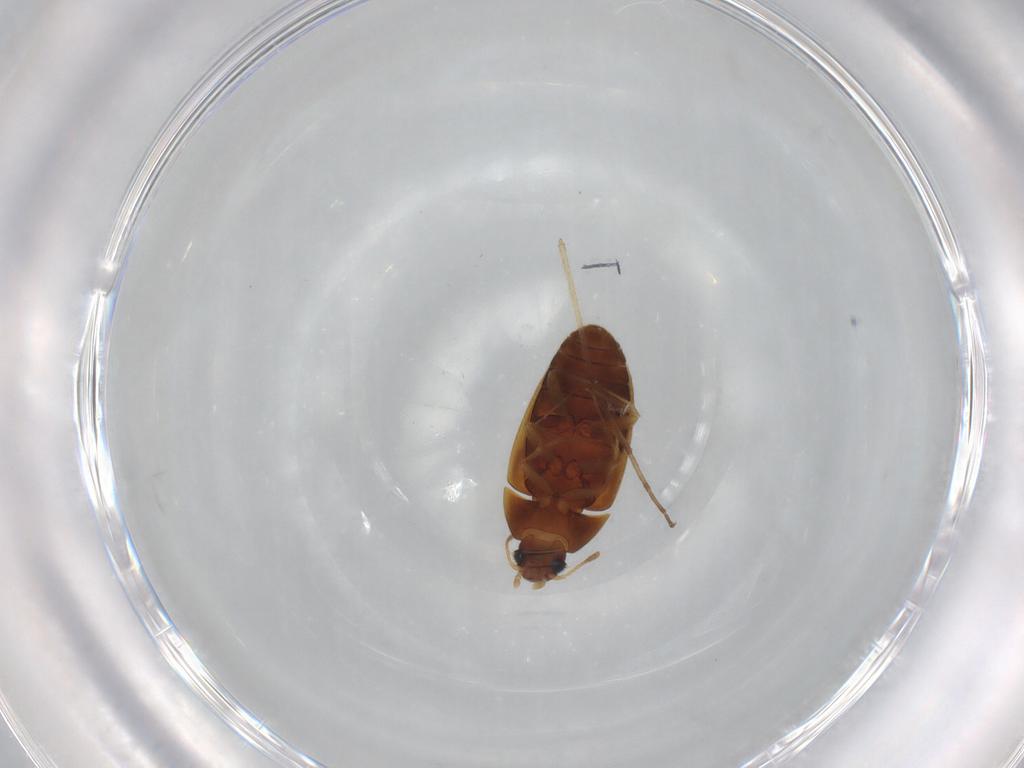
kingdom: Animalia
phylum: Arthropoda
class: Insecta
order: Coleoptera
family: Mycetophagidae
